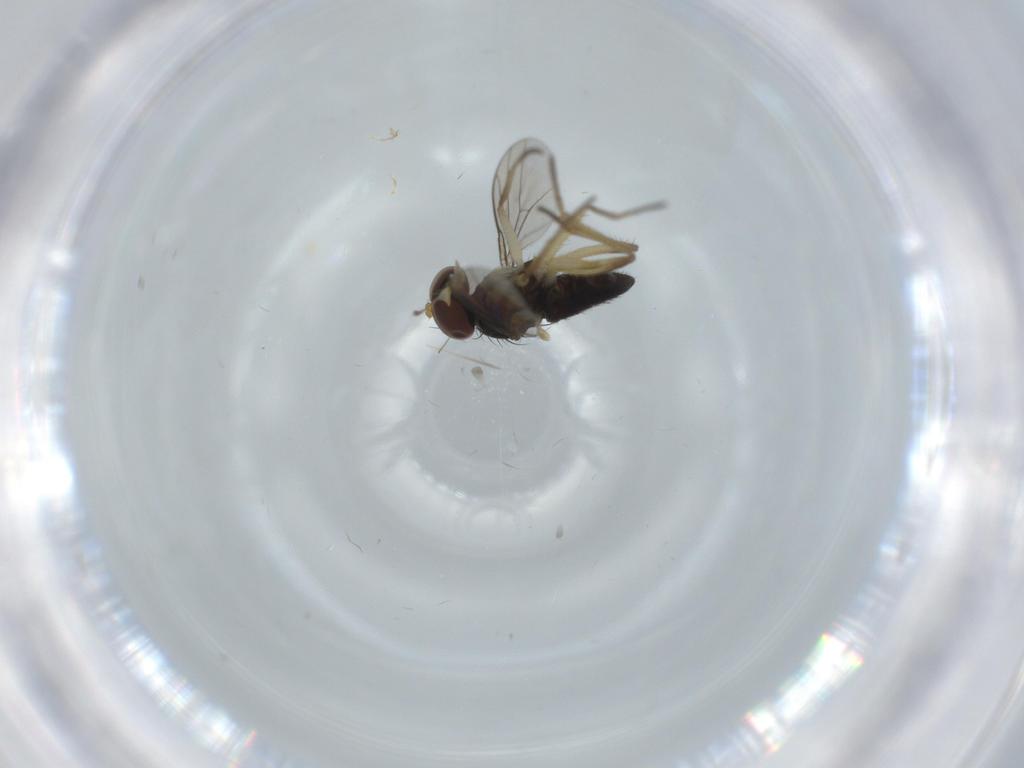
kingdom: Animalia
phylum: Arthropoda
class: Insecta
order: Diptera
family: Dolichopodidae
